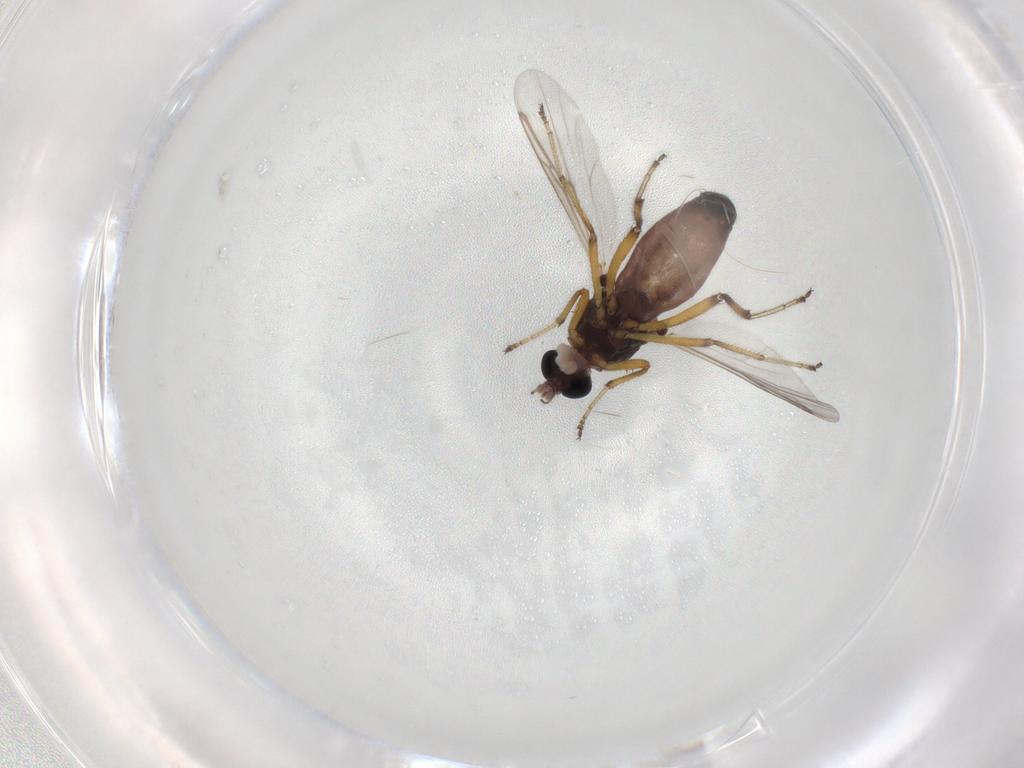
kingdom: Animalia
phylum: Arthropoda
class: Insecta
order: Diptera
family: Ceratopogonidae
